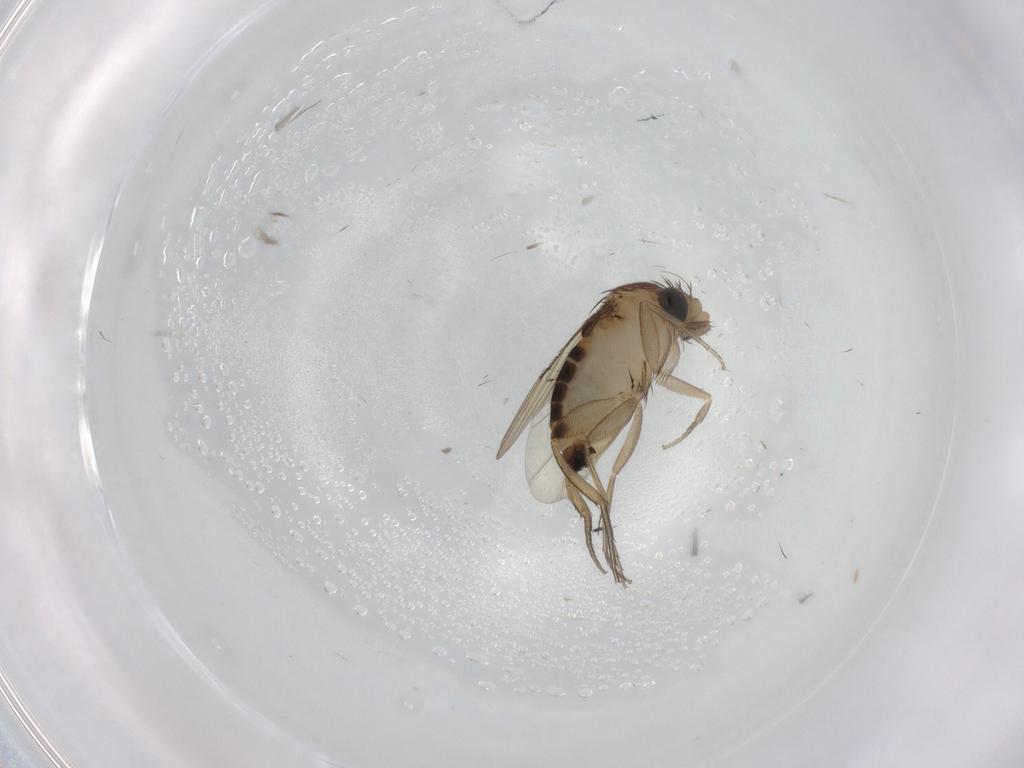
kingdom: Animalia
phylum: Arthropoda
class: Insecta
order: Diptera
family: Phoridae
